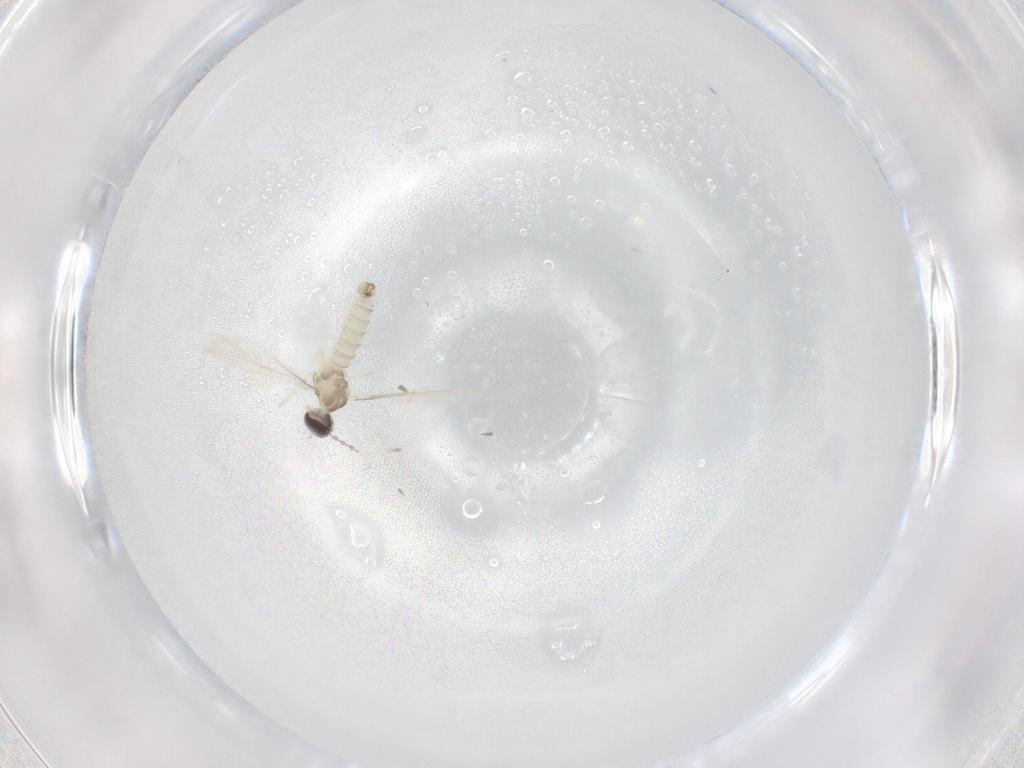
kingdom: Animalia
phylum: Arthropoda
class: Insecta
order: Diptera
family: Cecidomyiidae
